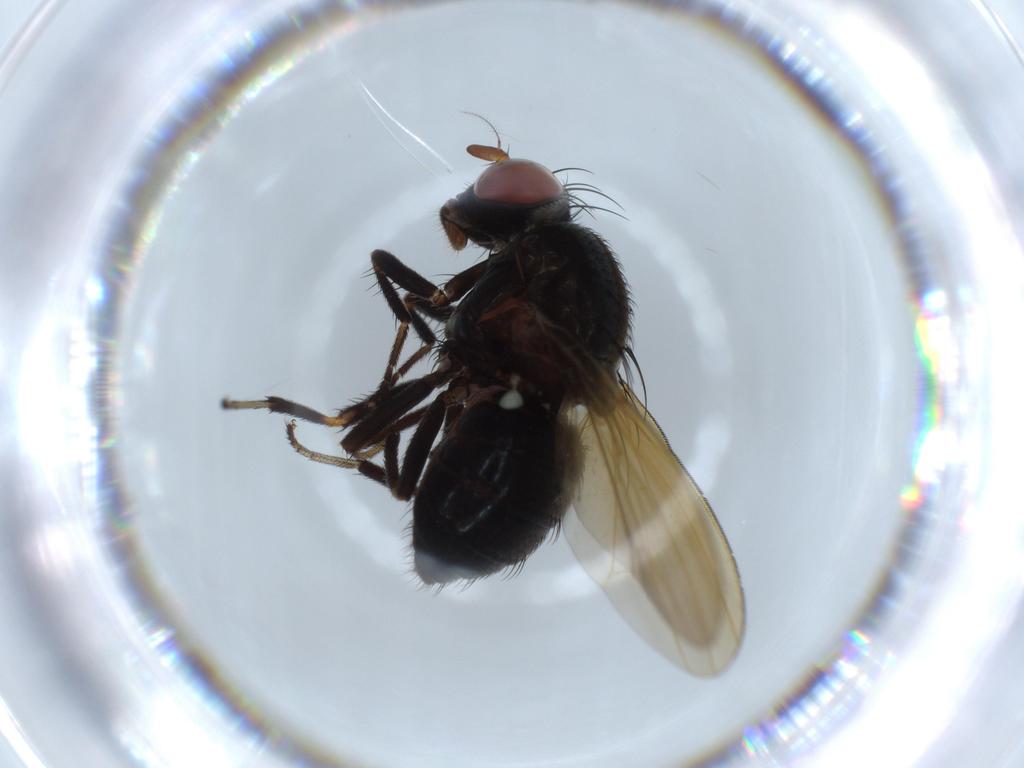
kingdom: Animalia
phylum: Arthropoda
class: Insecta
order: Diptera
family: Lauxaniidae
